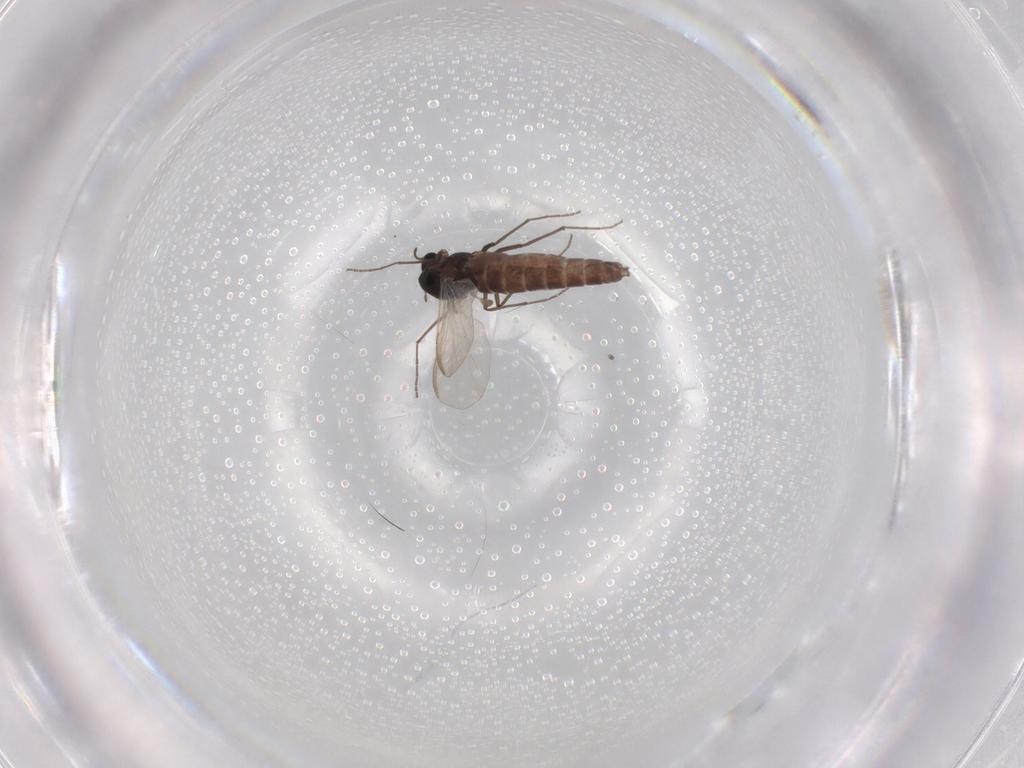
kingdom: Animalia
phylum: Arthropoda
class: Insecta
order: Diptera
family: Chironomidae
